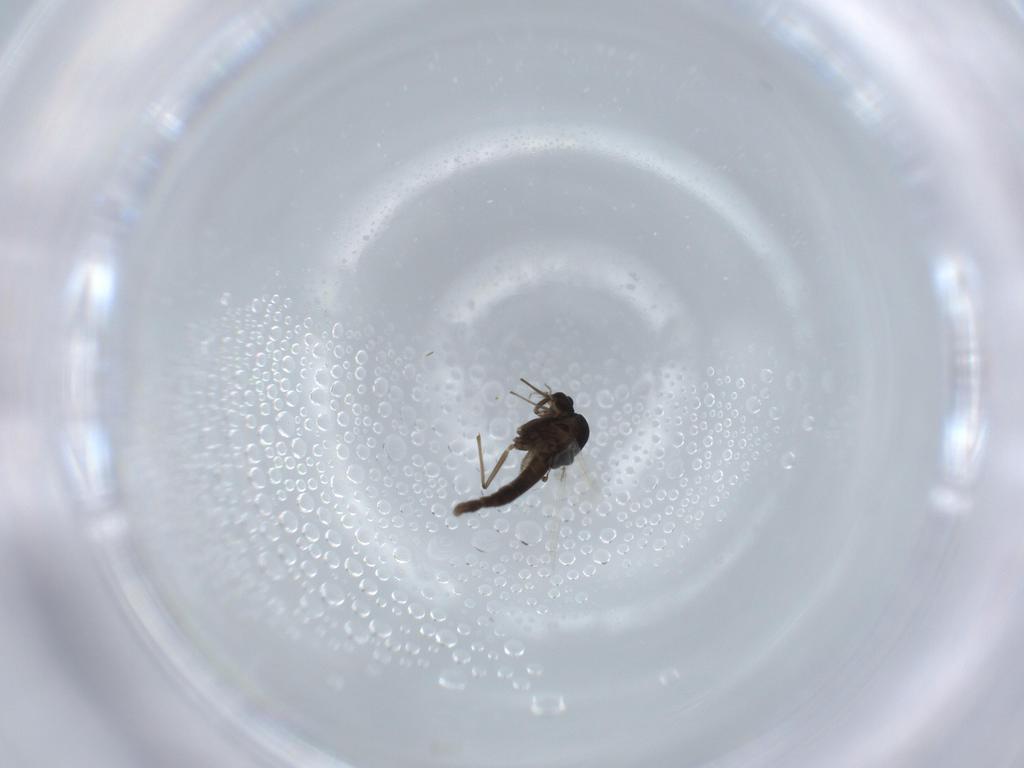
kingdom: Animalia
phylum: Arthropoda
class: Insecta
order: Diptera
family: Chironomidae
